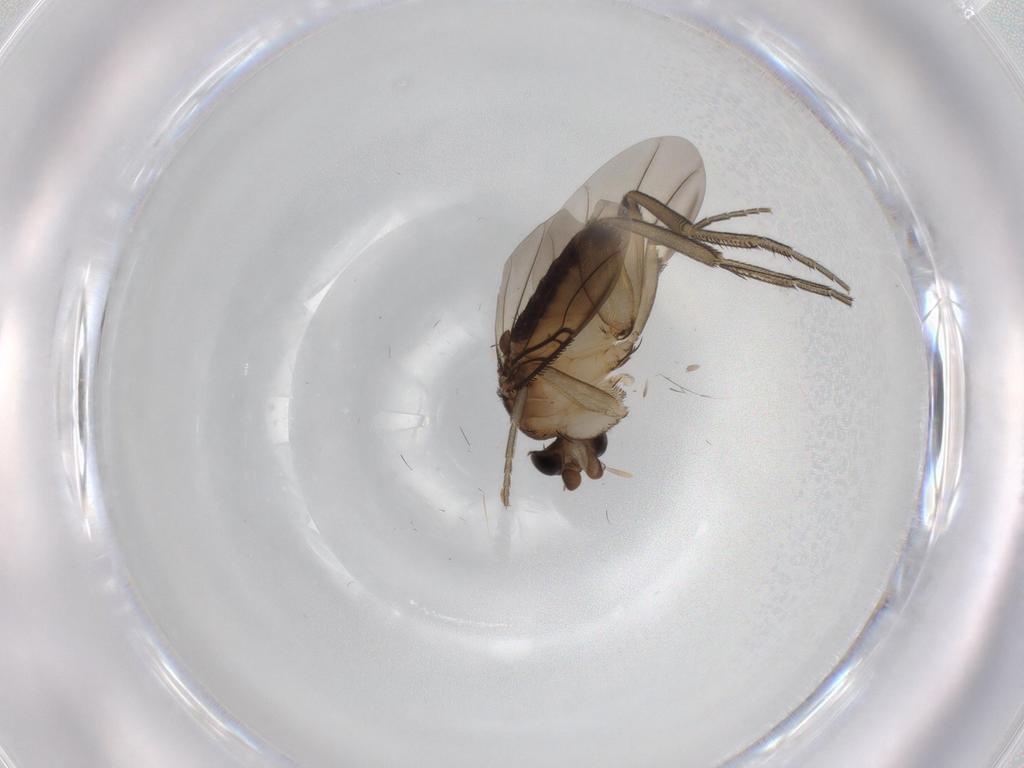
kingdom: Animalia
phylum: Arthropoda
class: Insecta
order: Diptera
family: Phoridae
